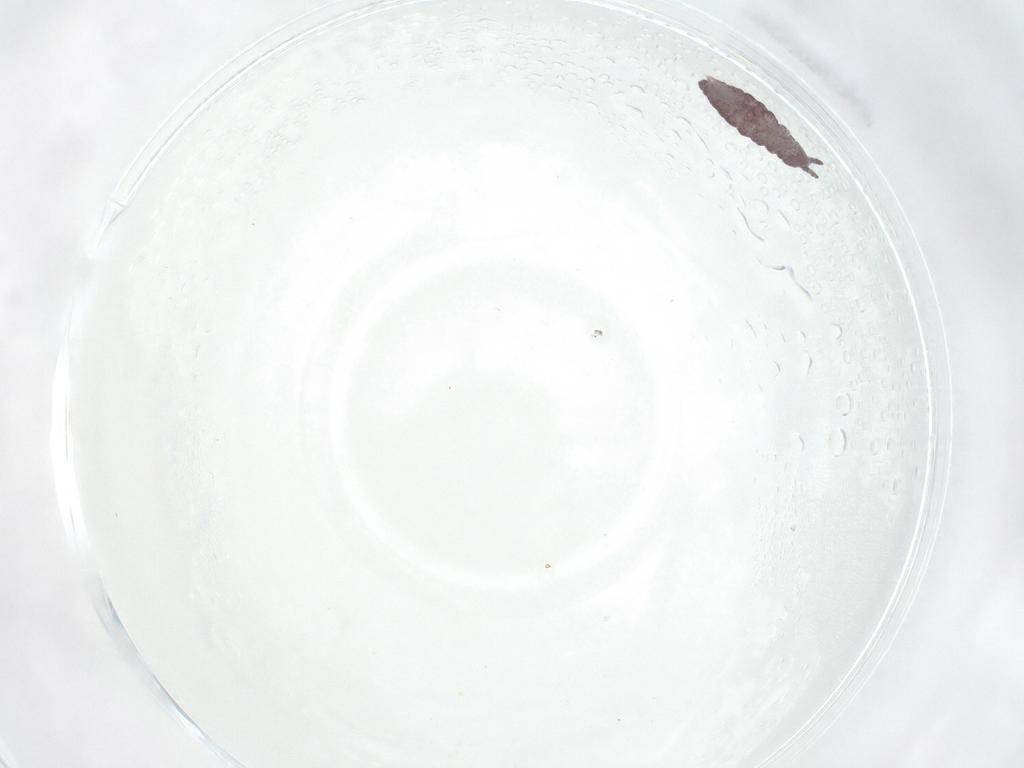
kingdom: Animalia
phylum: Arthropoda
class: Collembola
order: Poduromorpha
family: Hypogastruridae
